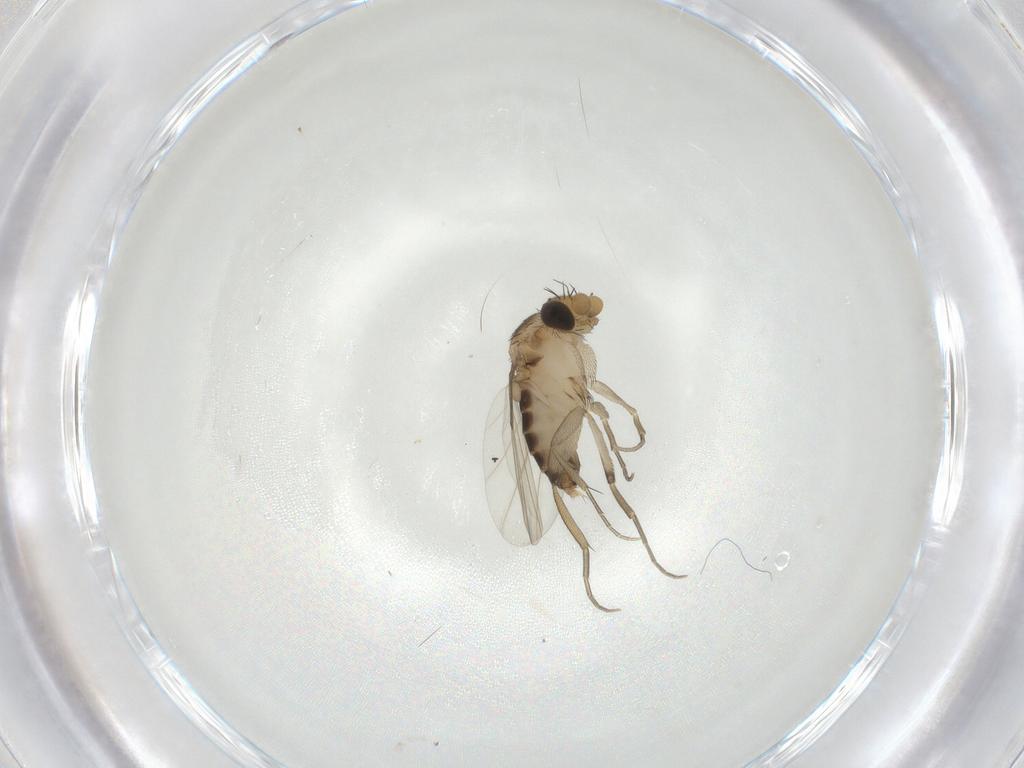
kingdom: Animalia
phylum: Arthropoda
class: Insecta
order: Diptera
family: Phoridae
